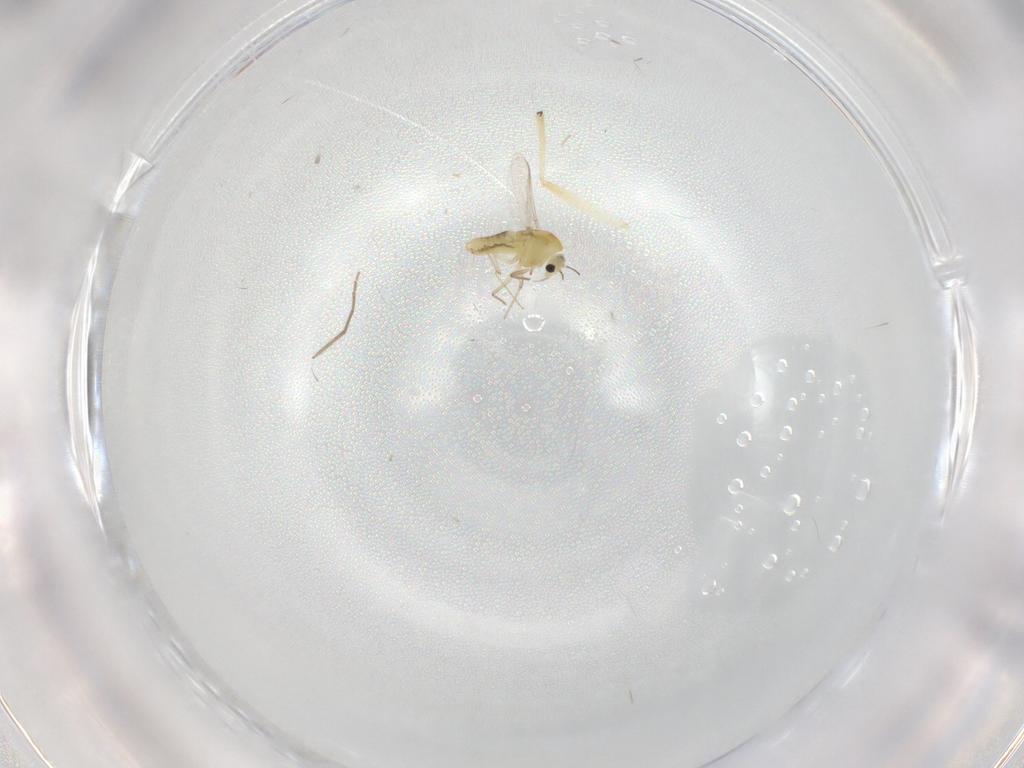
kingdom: Animalia
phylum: Arthropoda
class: Insecta
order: Diptera
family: Chironomidae
